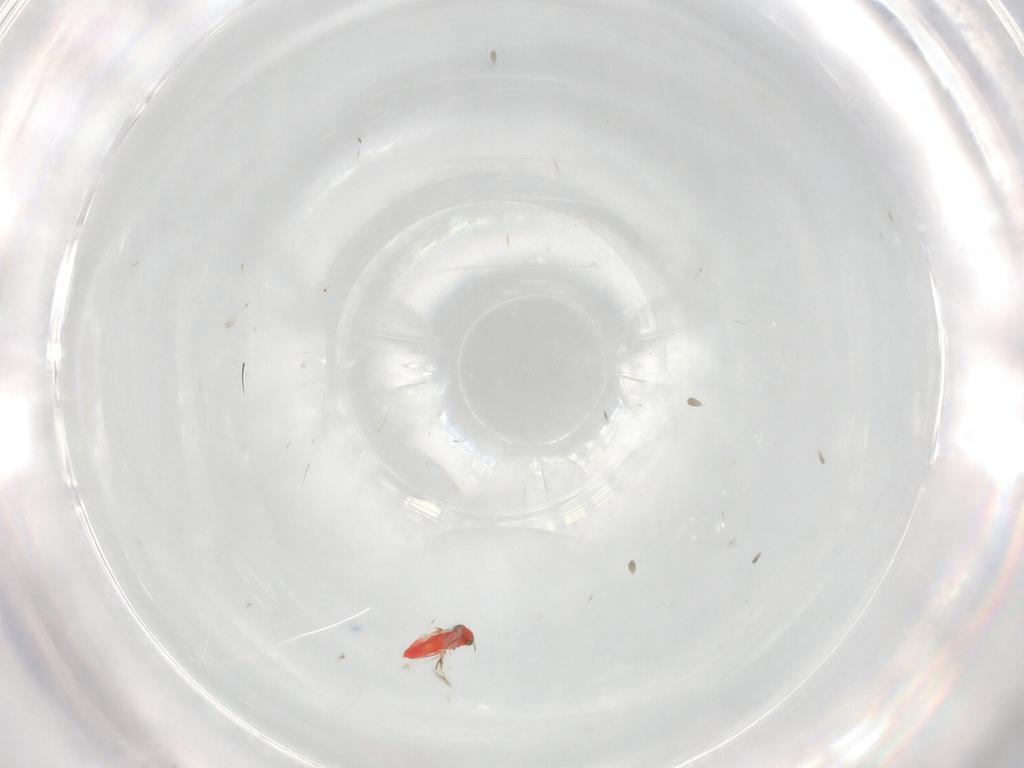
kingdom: Animalia
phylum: Arthropoda
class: Insecta
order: Hymenoptera
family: Trichogrammatidae
